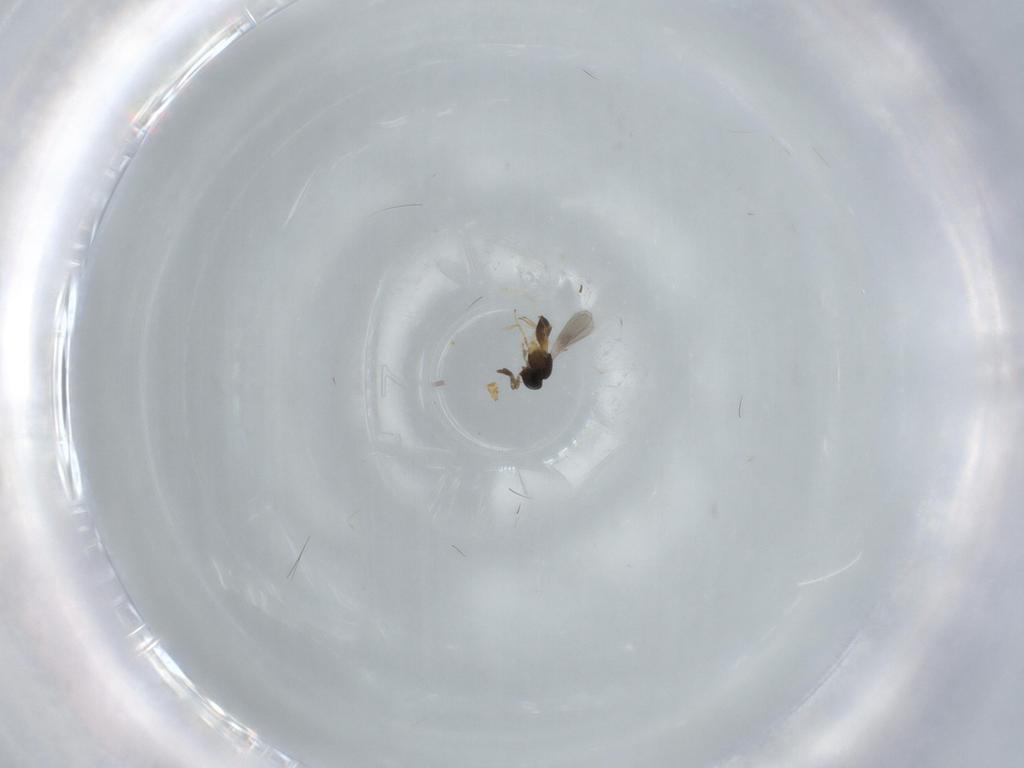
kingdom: Animalia
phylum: Arthropoda
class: Insecta
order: Hymenoptera
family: Scelionidae
